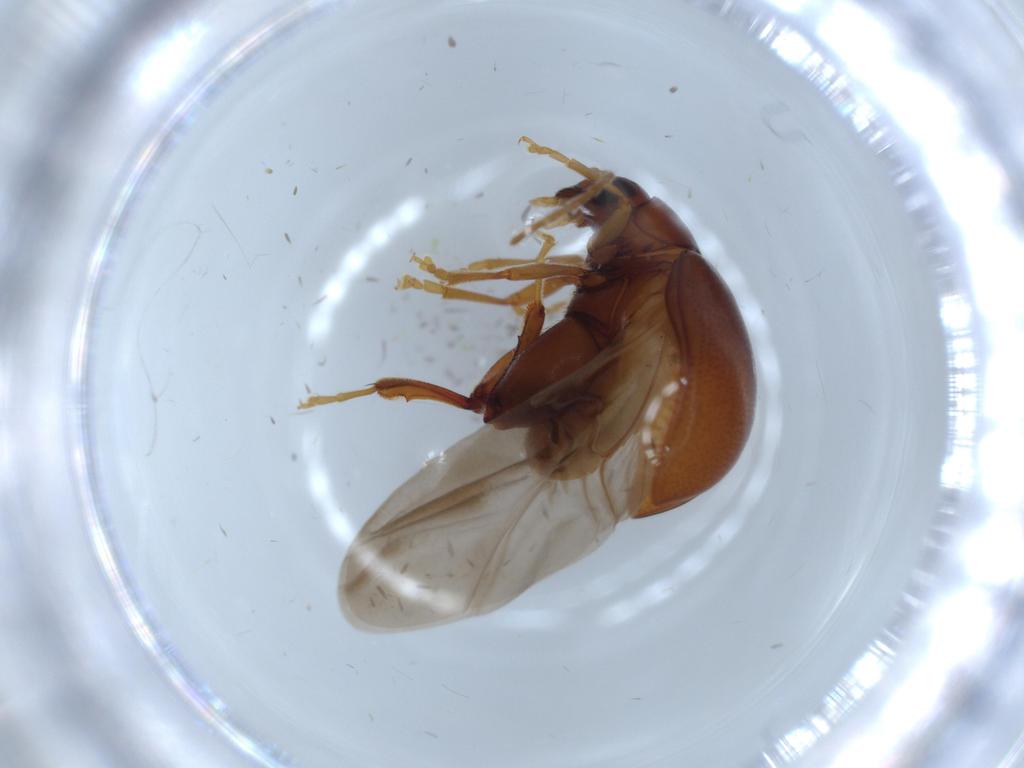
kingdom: Animalia
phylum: Arthropoda
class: Insecta
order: Coleoptera
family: Chrysomelidae
